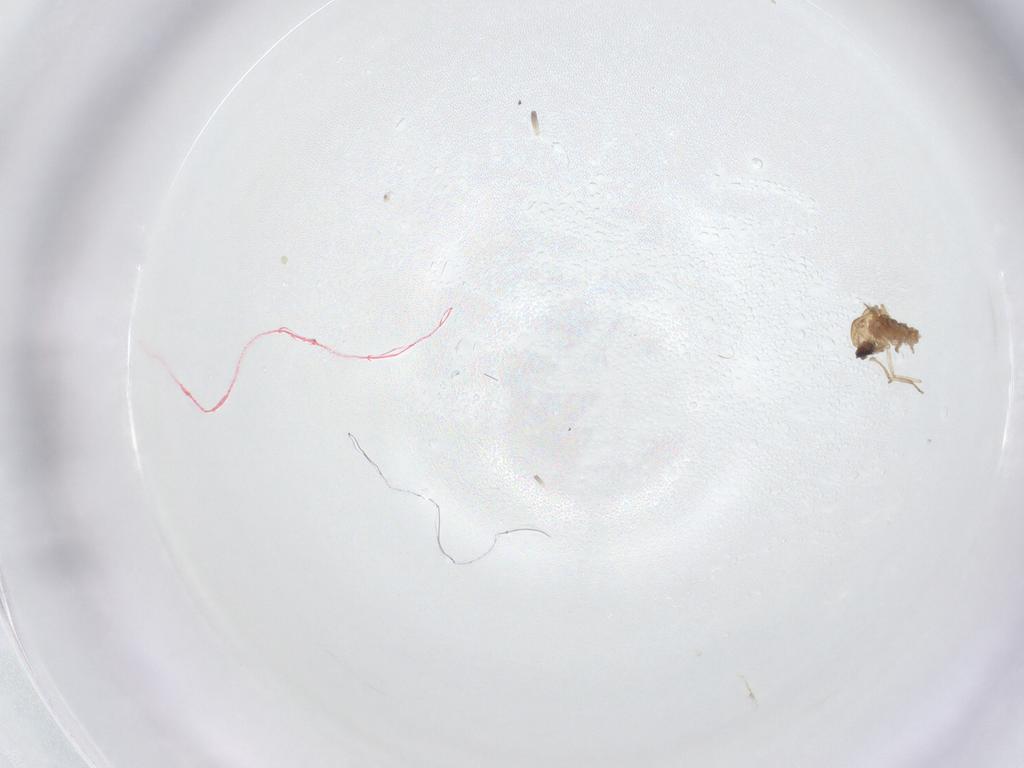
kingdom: Animalia
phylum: Arthropoda
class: Insecta
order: Diptera
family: Ceratopogonidae
